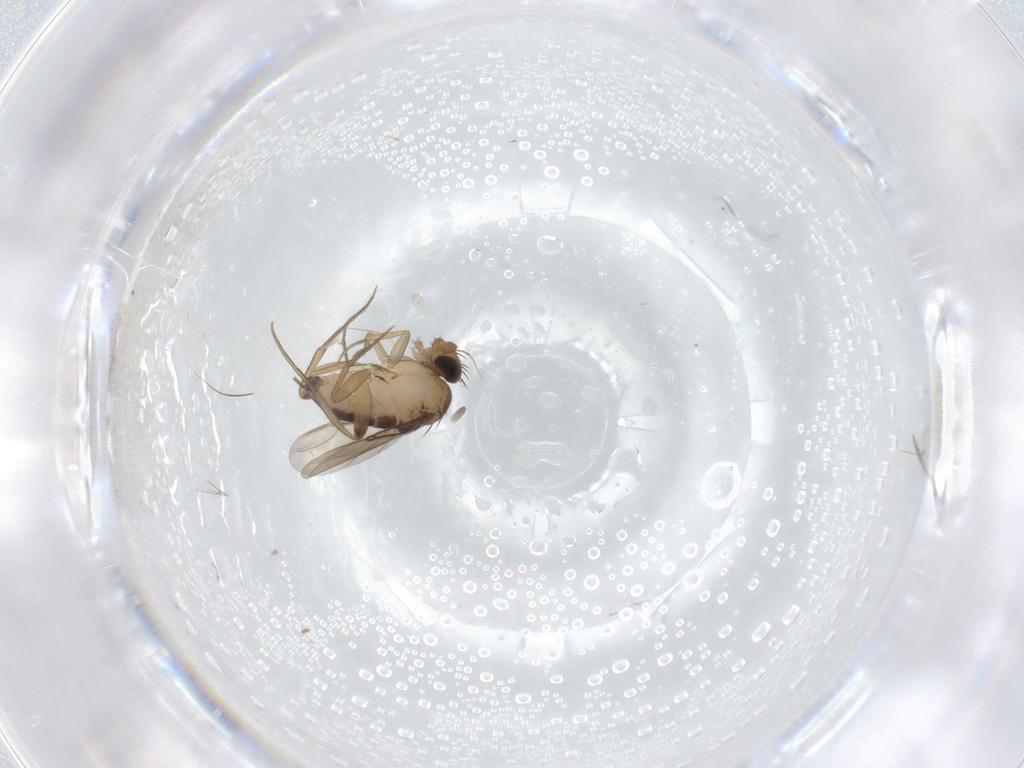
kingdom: Animalia
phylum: Arthropoda
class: Insecta
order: Diptera
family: Phoridae
